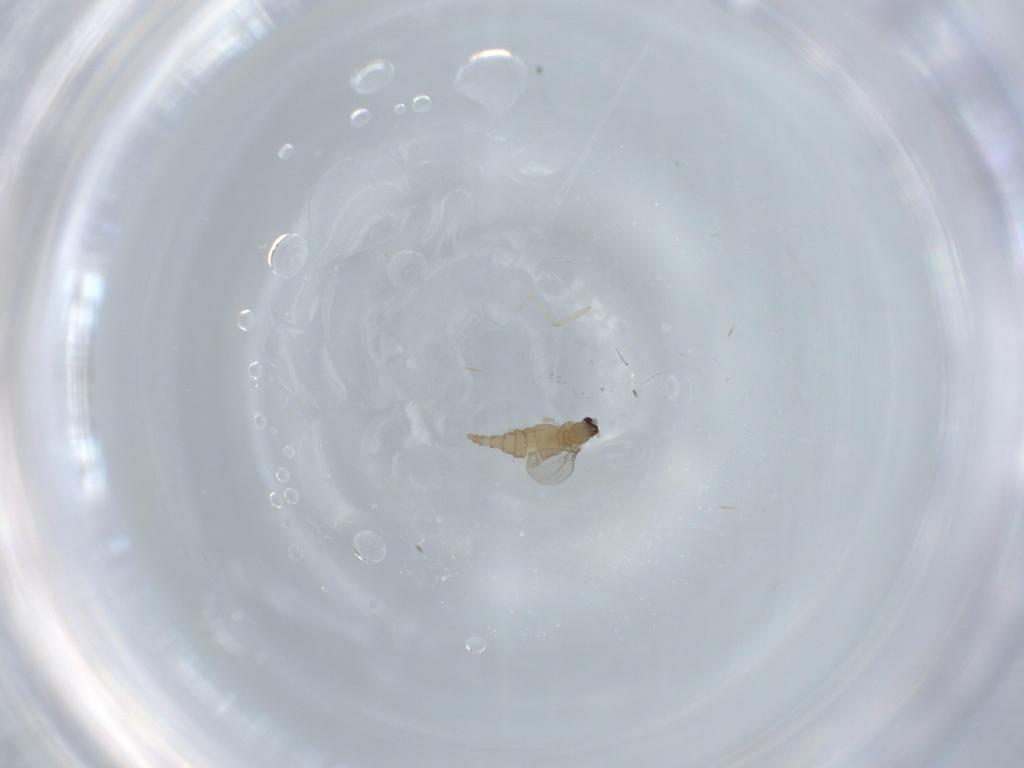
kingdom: Animalia
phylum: Arthropoda
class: Insecta
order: Diptera
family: Cecidomyiidae
